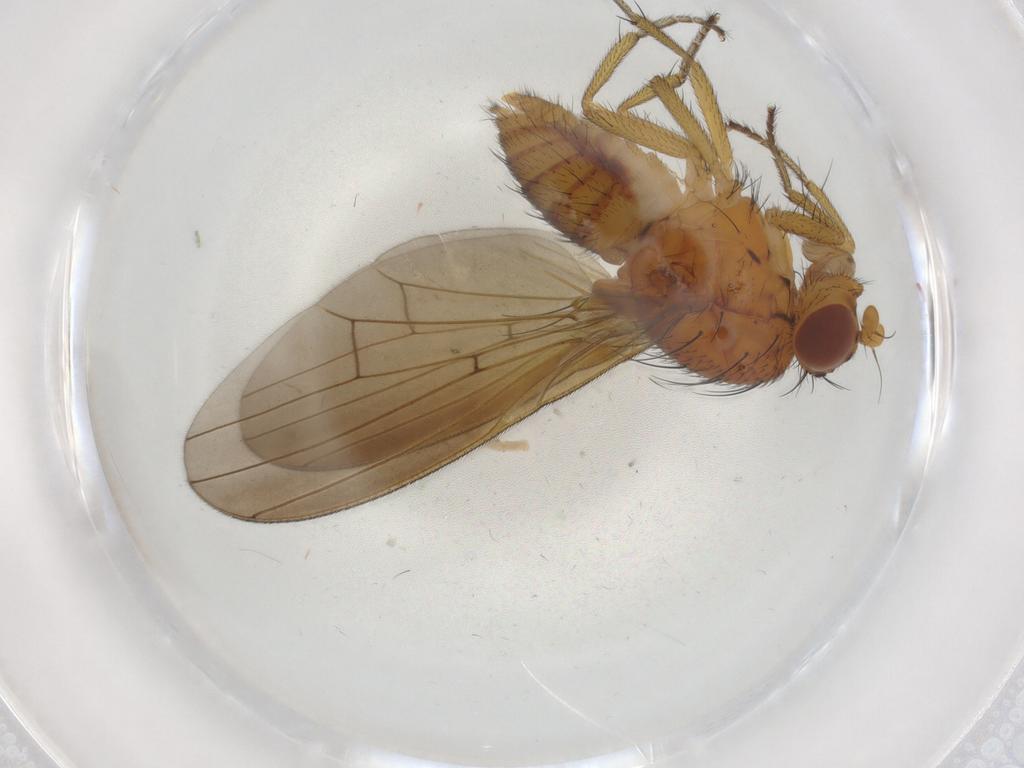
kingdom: Animalia
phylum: Arthropoda
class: Insecta
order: Diptera
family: Chironomidae
